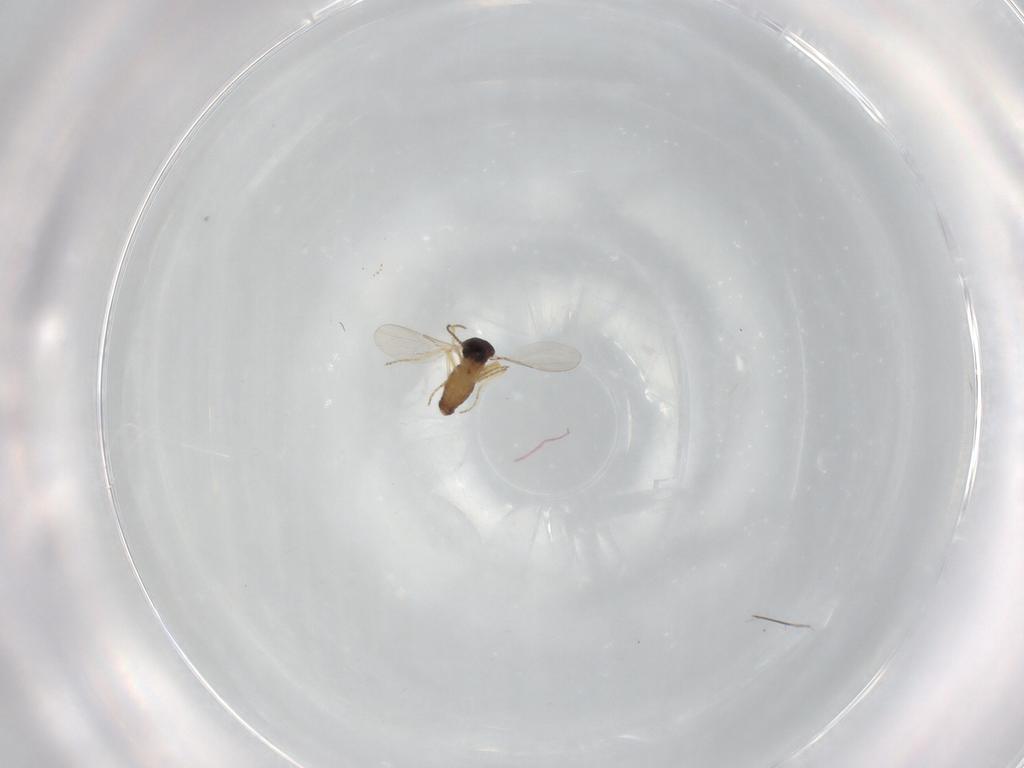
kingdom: Animalia
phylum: Arthropoda
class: Insecta
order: Diptera
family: Ceratopogonidae
